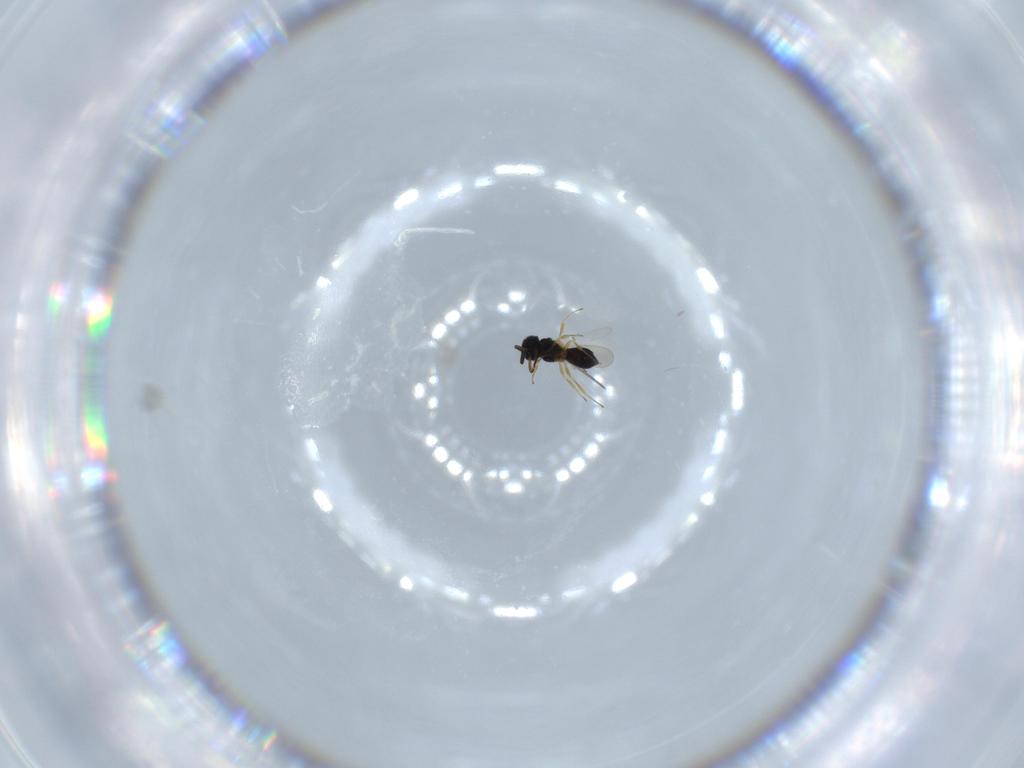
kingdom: Animalia
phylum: Arthropoda
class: Insecta
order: Hymenoptera
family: Scelionidae
